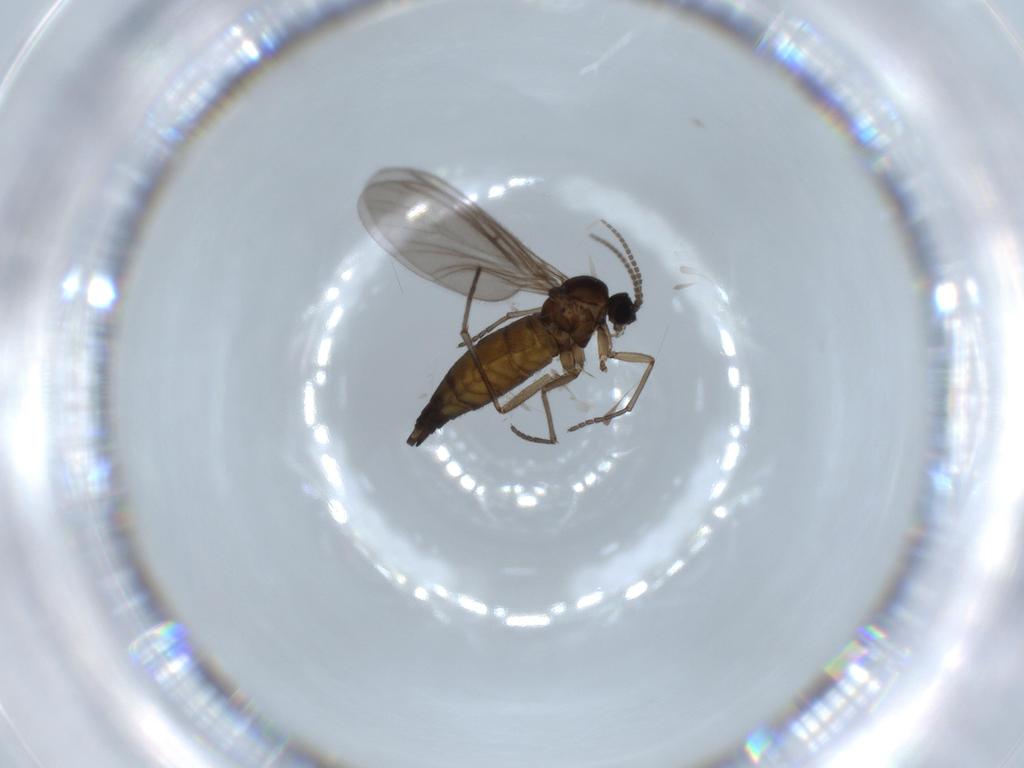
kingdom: Animalia
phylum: Arthropoda
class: Insecta
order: Diptera
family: Sciaridae
